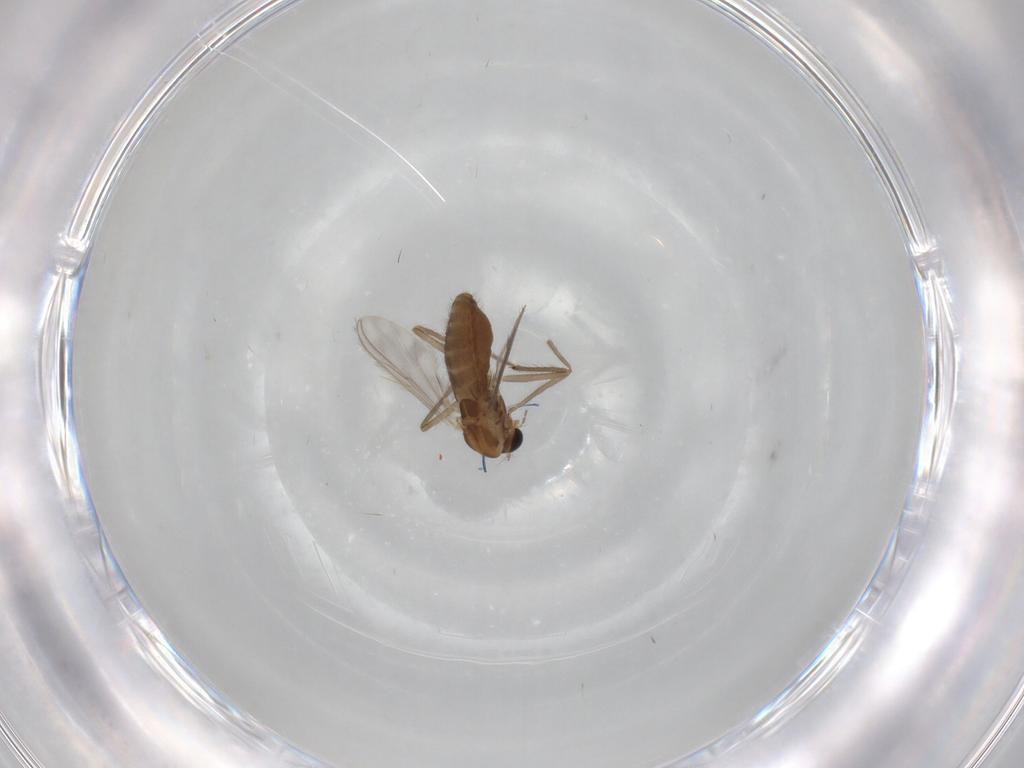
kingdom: Animalia
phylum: Arthropoda
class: Insecta
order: Diptera
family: Chironomidae
